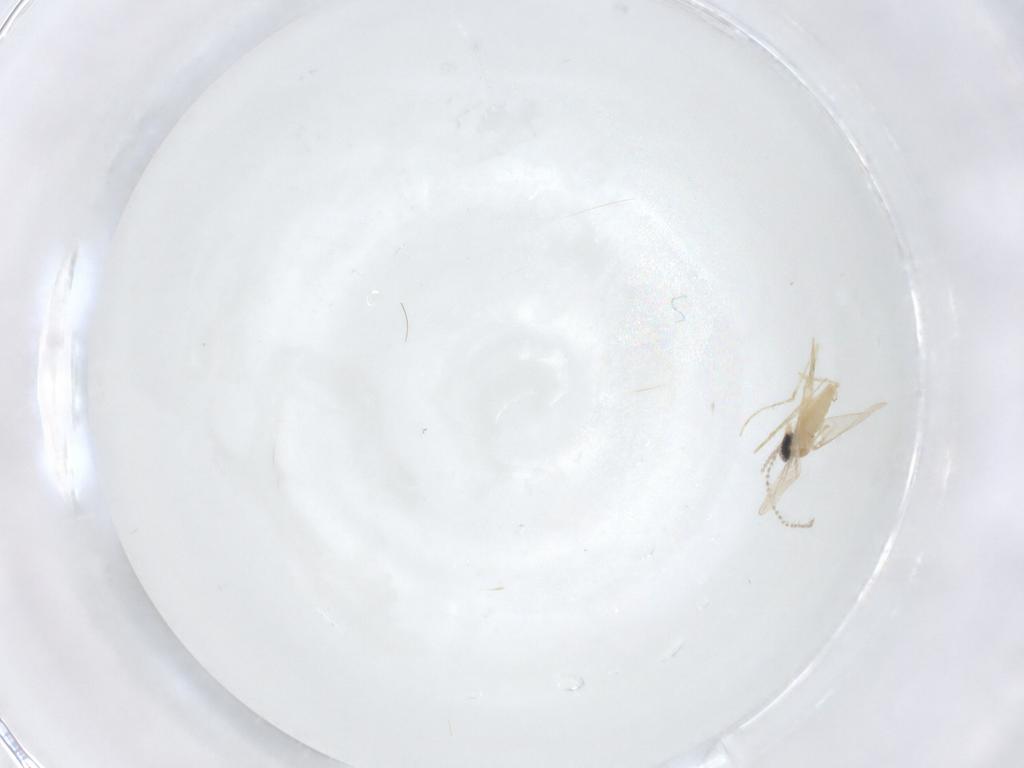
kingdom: Animalia
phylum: Arthropoda
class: Insecta
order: Diptera
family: Cecidomyiidae
